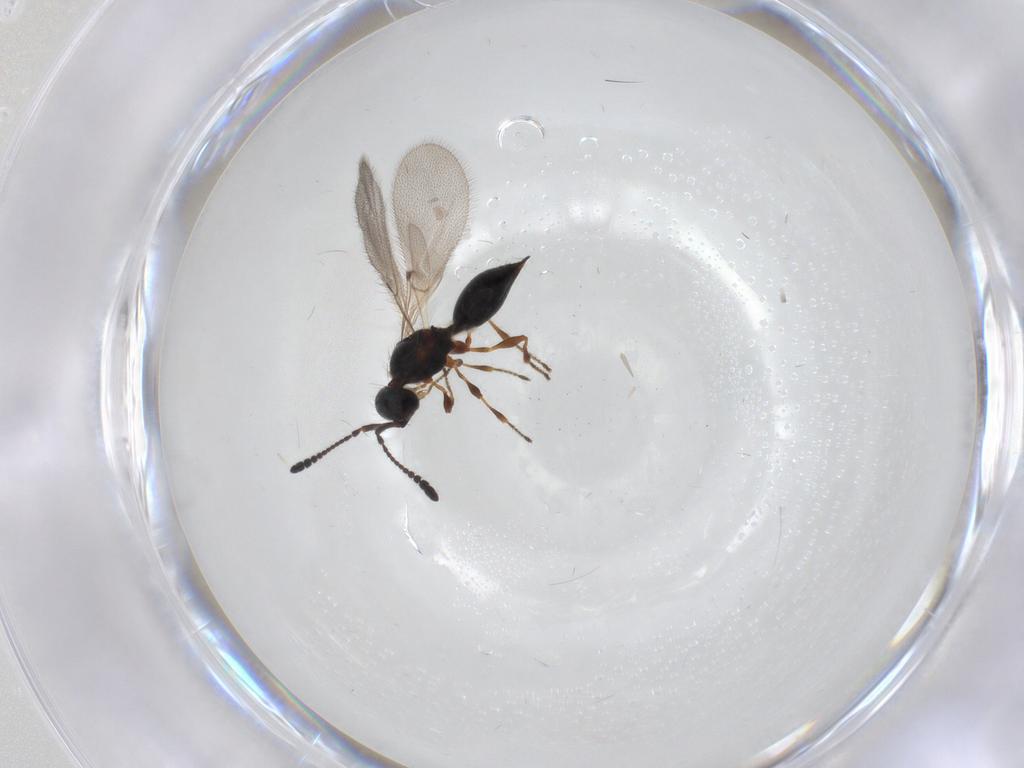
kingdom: Animalia
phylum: Arthropoda
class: Insecta
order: Hymenoptera
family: Diapriidae
